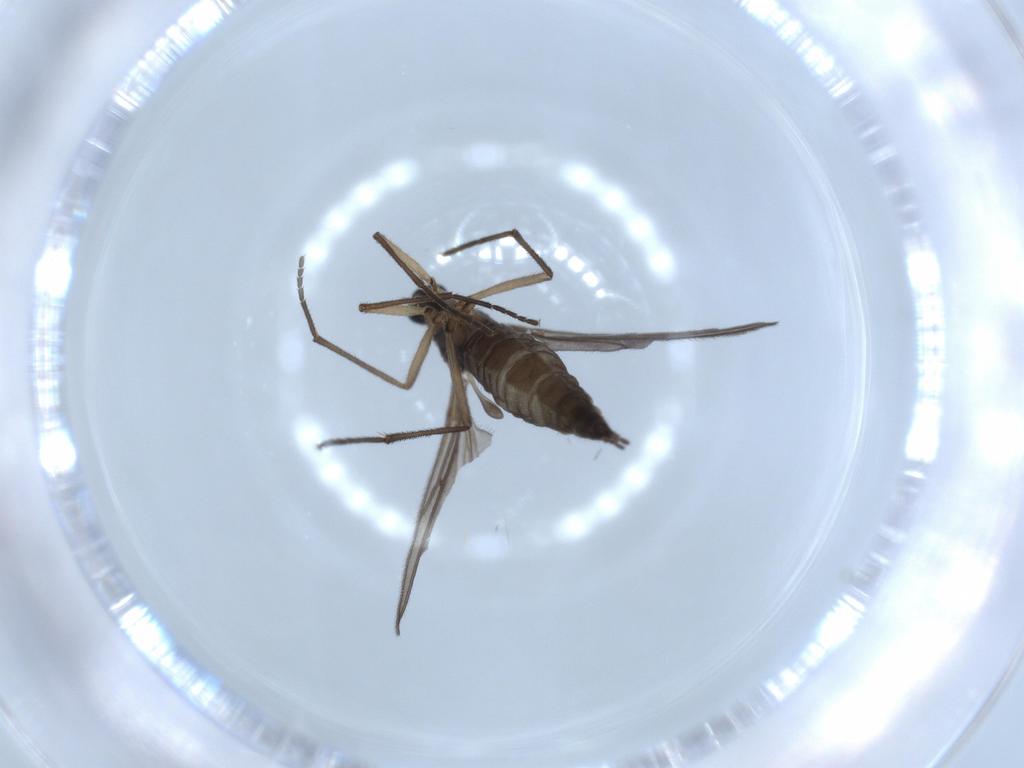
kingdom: Animalia
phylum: Arthropoda
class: Insecta
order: Diptera
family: Sciaridae
